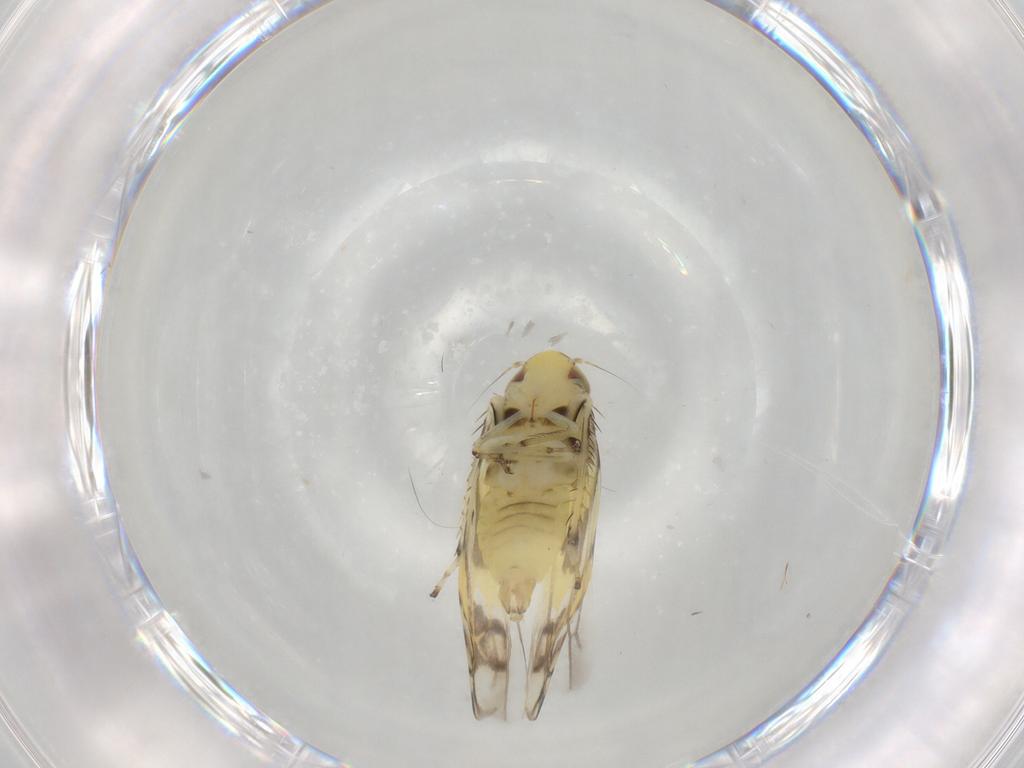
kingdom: Animalia
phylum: Arthropoda
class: Insecta
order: Hemiptera
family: Cicadellidae
